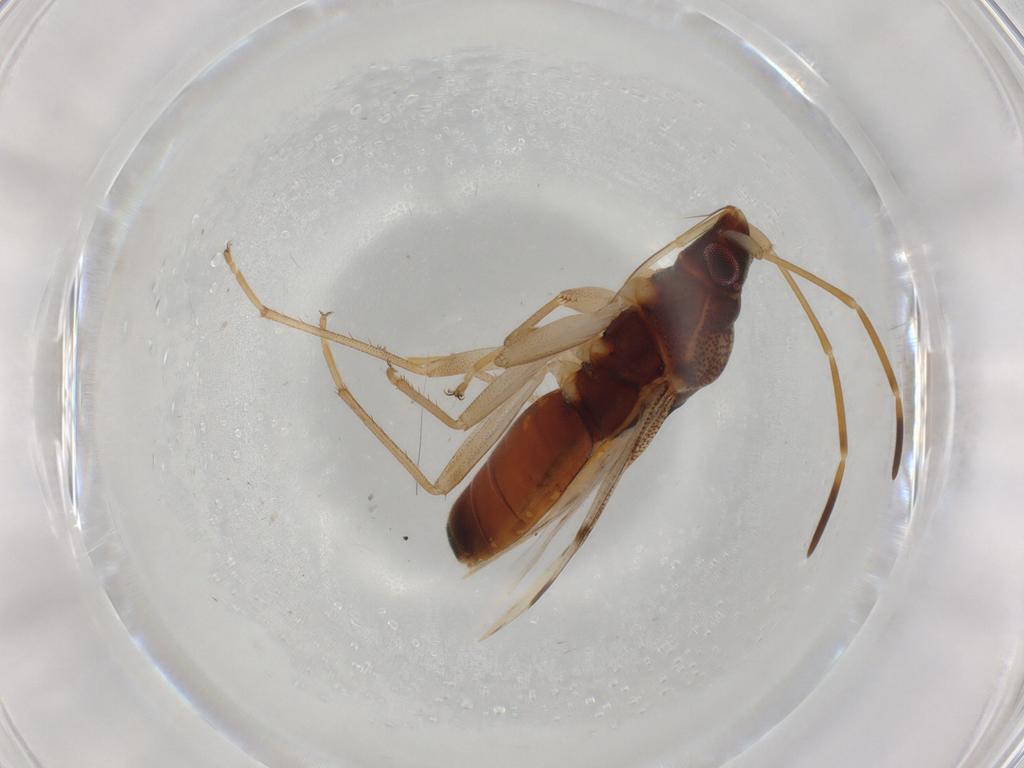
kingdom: Animalia
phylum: Arthropoda
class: Insecta
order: Hemiptera
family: Rhyparochromidae
